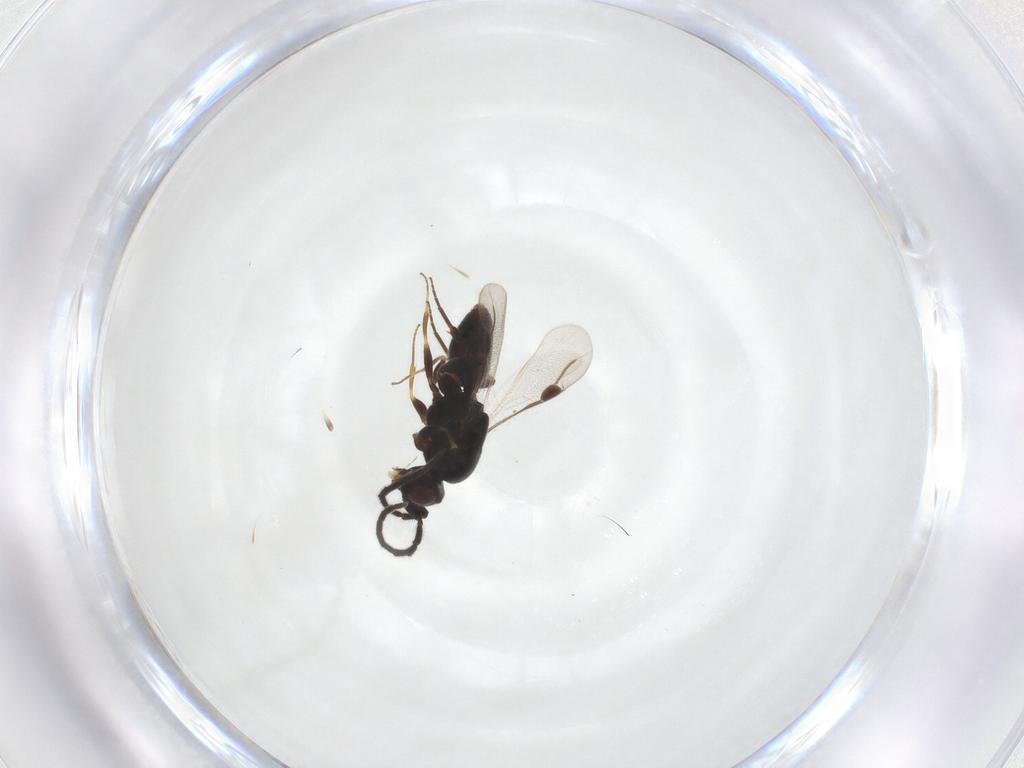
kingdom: Animalia
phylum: Arthropoda
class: Insecta
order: Hymenoptera
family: Megaspilidae
